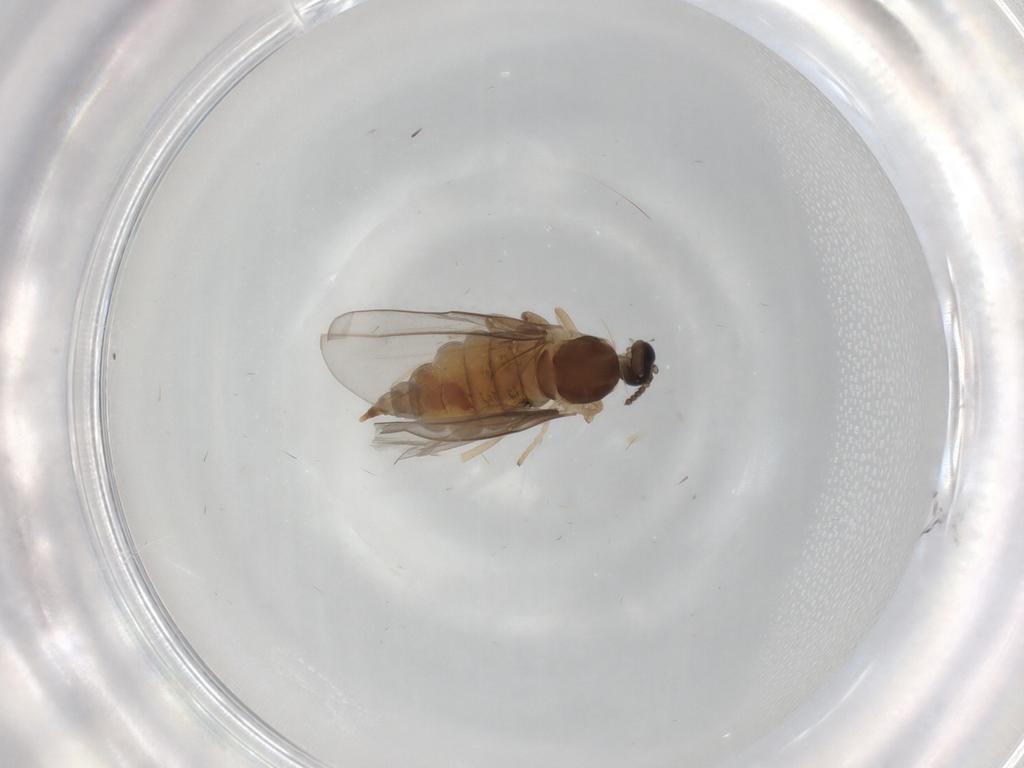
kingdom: Animalia
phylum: Arthropoda
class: Insecta
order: Diptera
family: Cecidomyiidae
